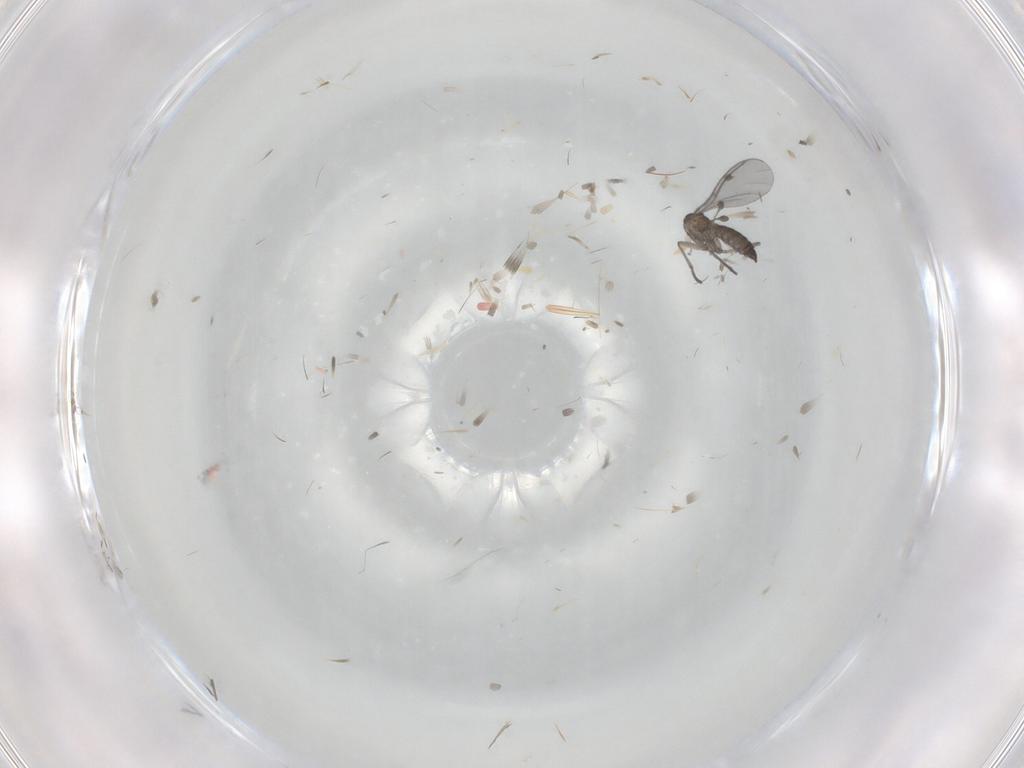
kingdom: Animalia
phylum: Arthropoda
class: Insecta
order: Diptera
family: Sciaridae
